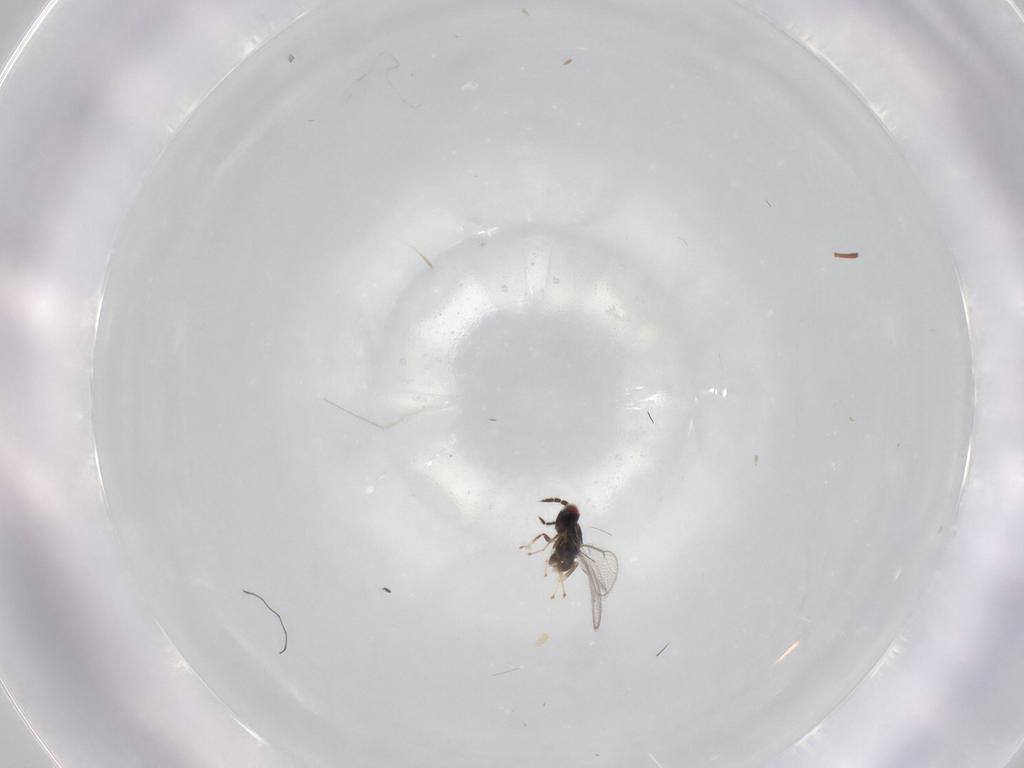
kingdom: Animalia
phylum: Arthropoda
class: Insecta
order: Hymenoptera
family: Eulophidae
